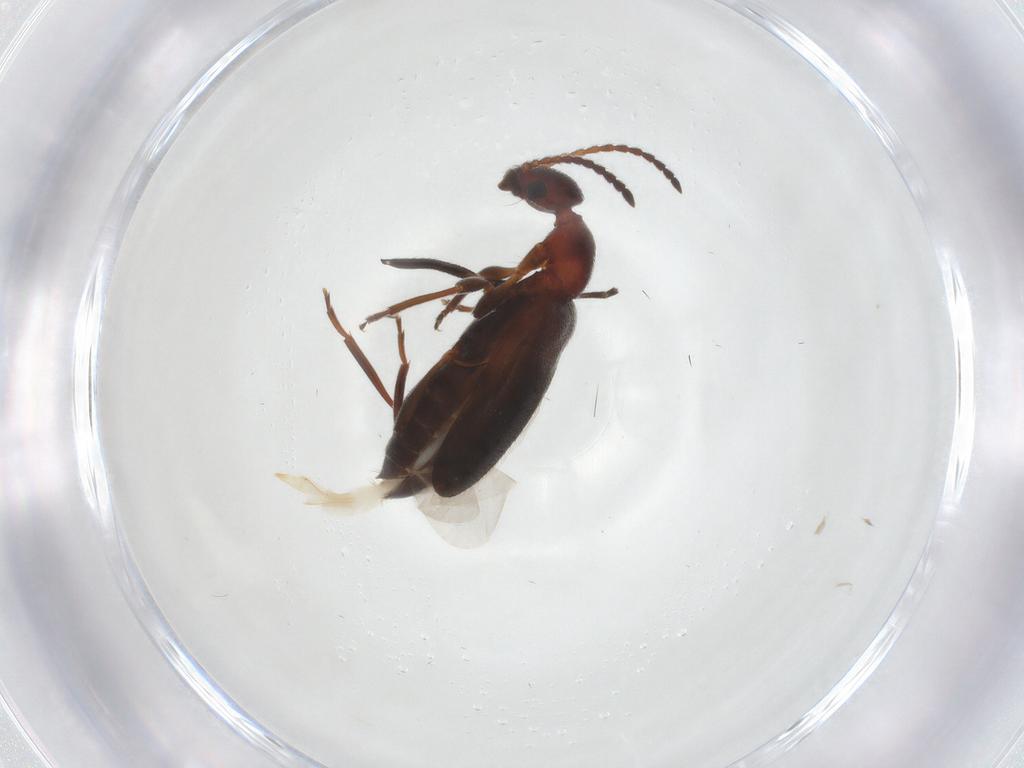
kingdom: Animalia
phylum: Arthropoda
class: Insecta
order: Coleoptera
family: Anthicidae
